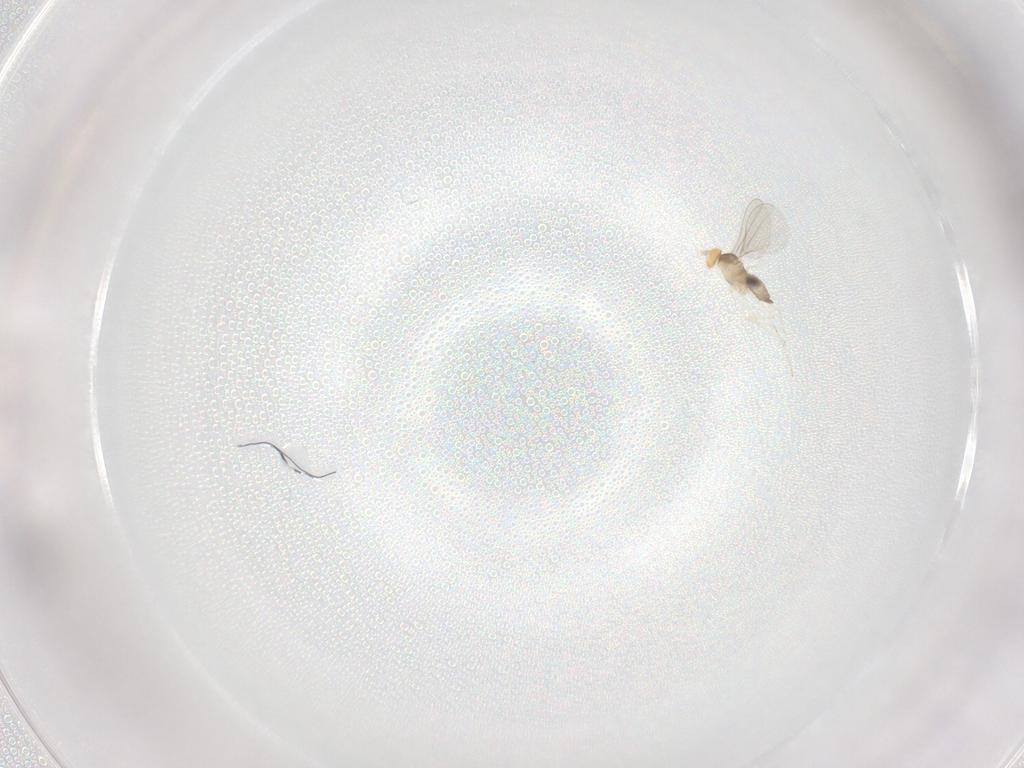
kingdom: Animalia
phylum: Arthropoda
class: Insecta
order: Diptera
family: Cecidomyiidae
